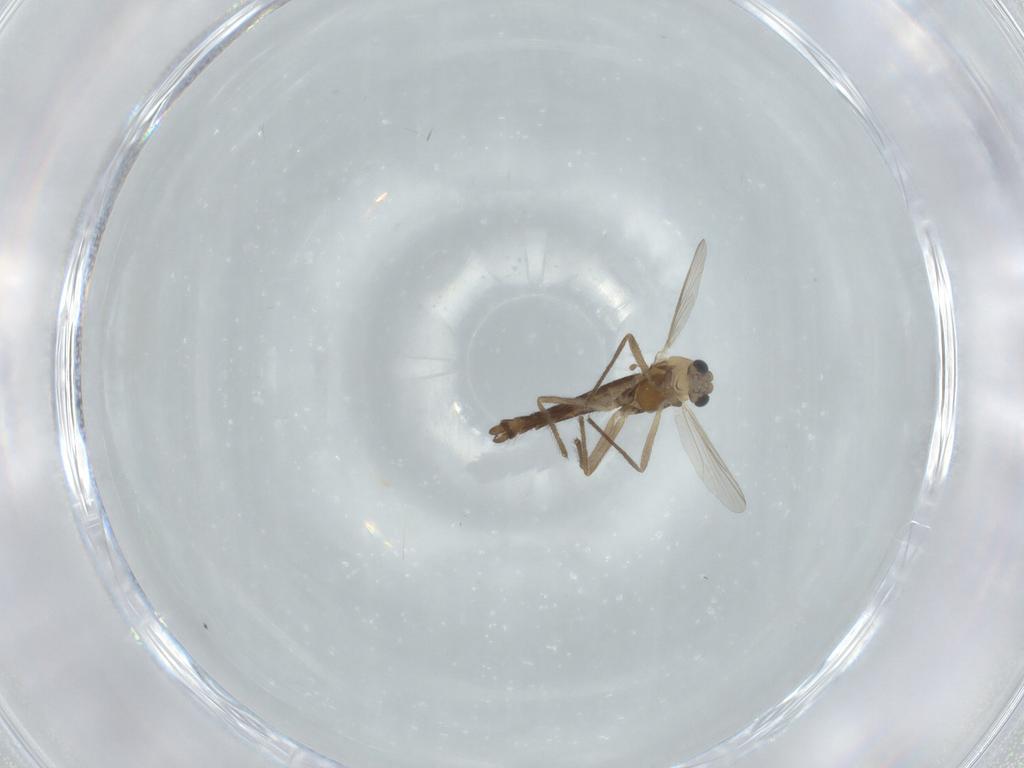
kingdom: Animalia
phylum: Arthropoda
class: Insecta
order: Diptera
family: Chironomidae
